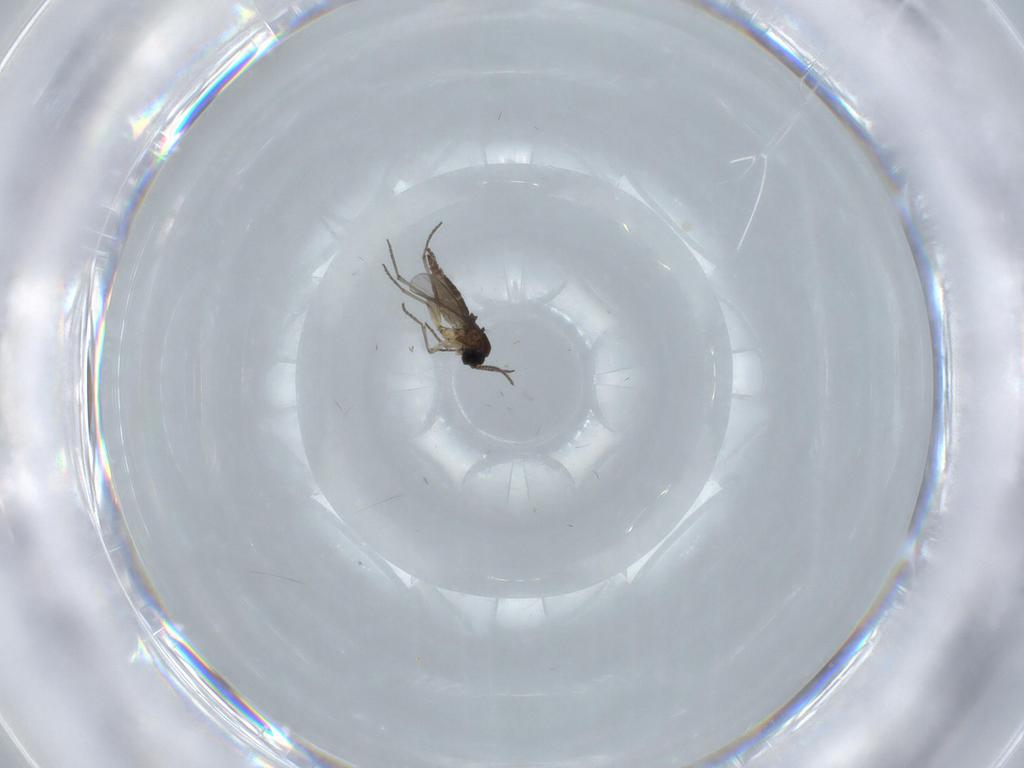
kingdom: Animalia
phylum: Arthropoda
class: Insecta
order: Diptera
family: Sciaridae
